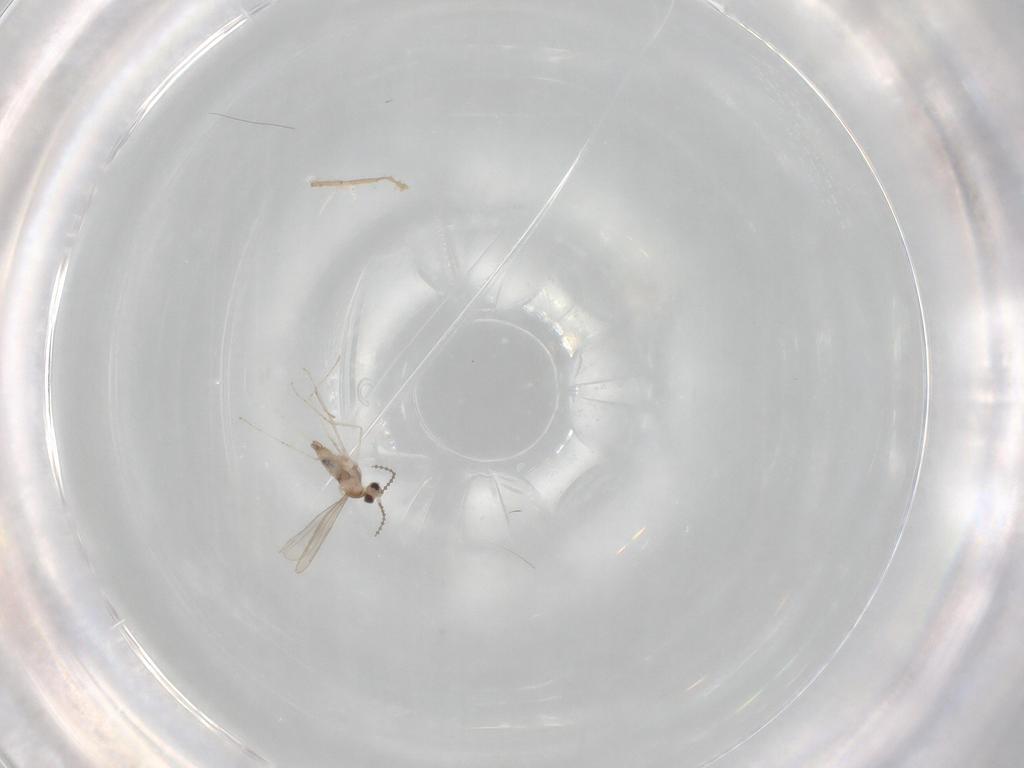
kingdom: Animalia
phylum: Arthropoda
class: Insecta
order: Diptera
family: Cecidomyiidae
